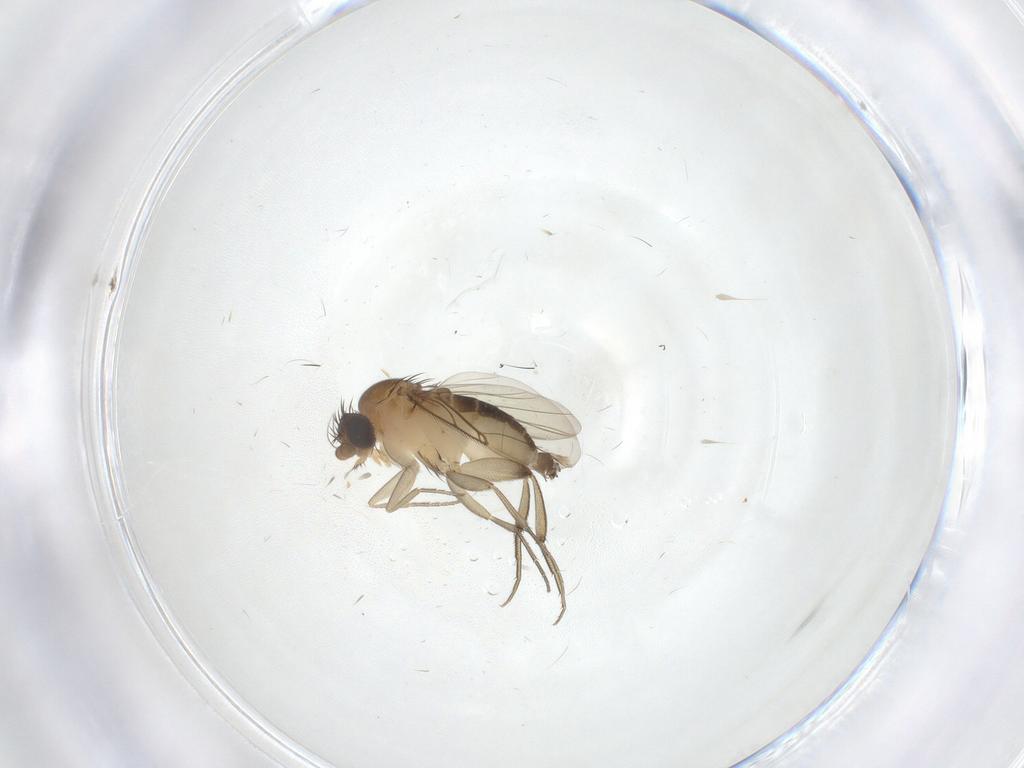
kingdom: Animalia
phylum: Arthropoda
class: Insecta
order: Diptera
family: Phoridae
